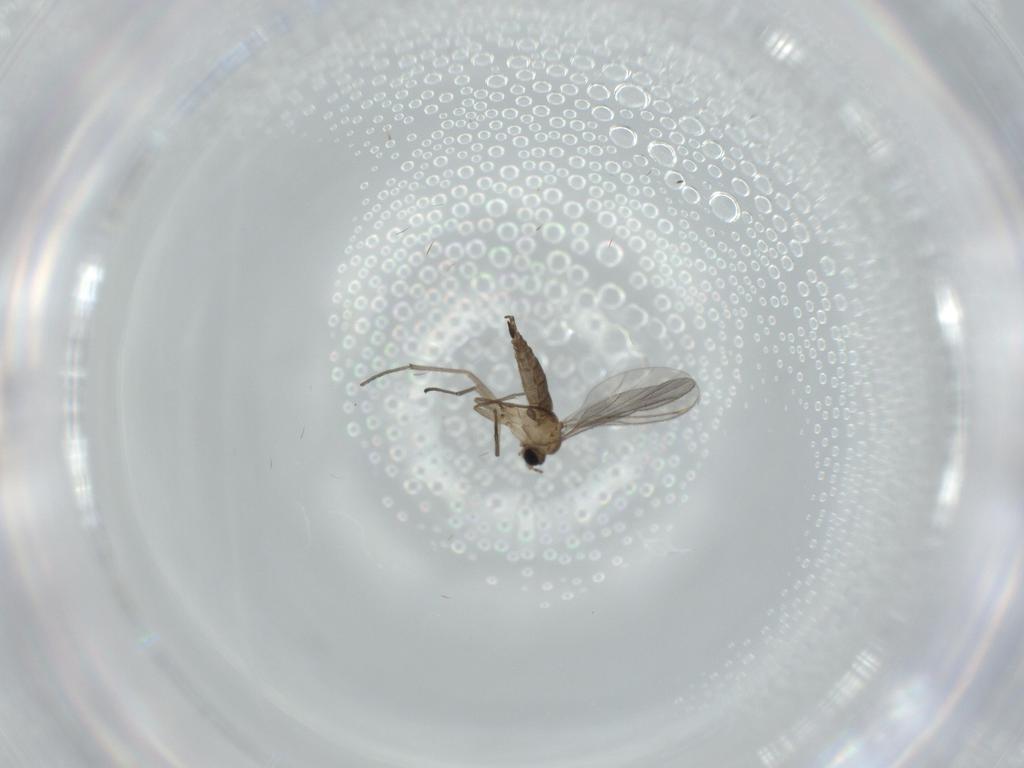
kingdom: Animalia
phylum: Arthropoda
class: Insecta
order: Diptera
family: Sciaridae
